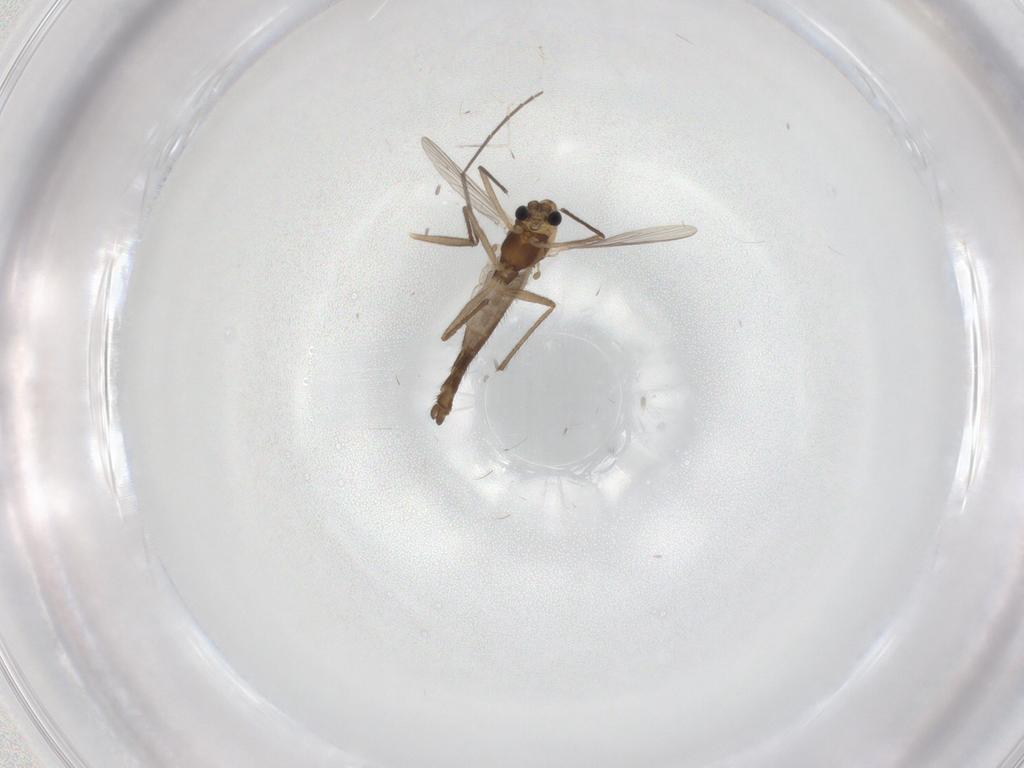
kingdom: Animalia
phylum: Arthropoda
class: Insecta
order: Diptera
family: Chironomidae
